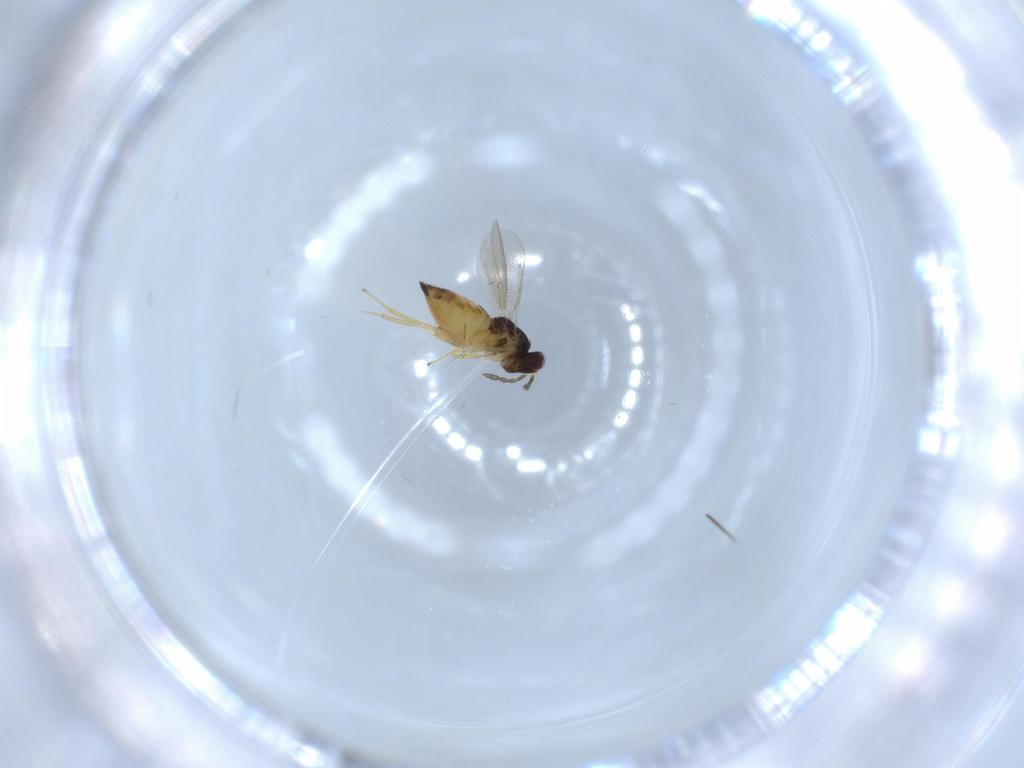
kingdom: Animalia
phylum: Arthropoda
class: Insecta
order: Hymenoptera
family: Eulophidae
